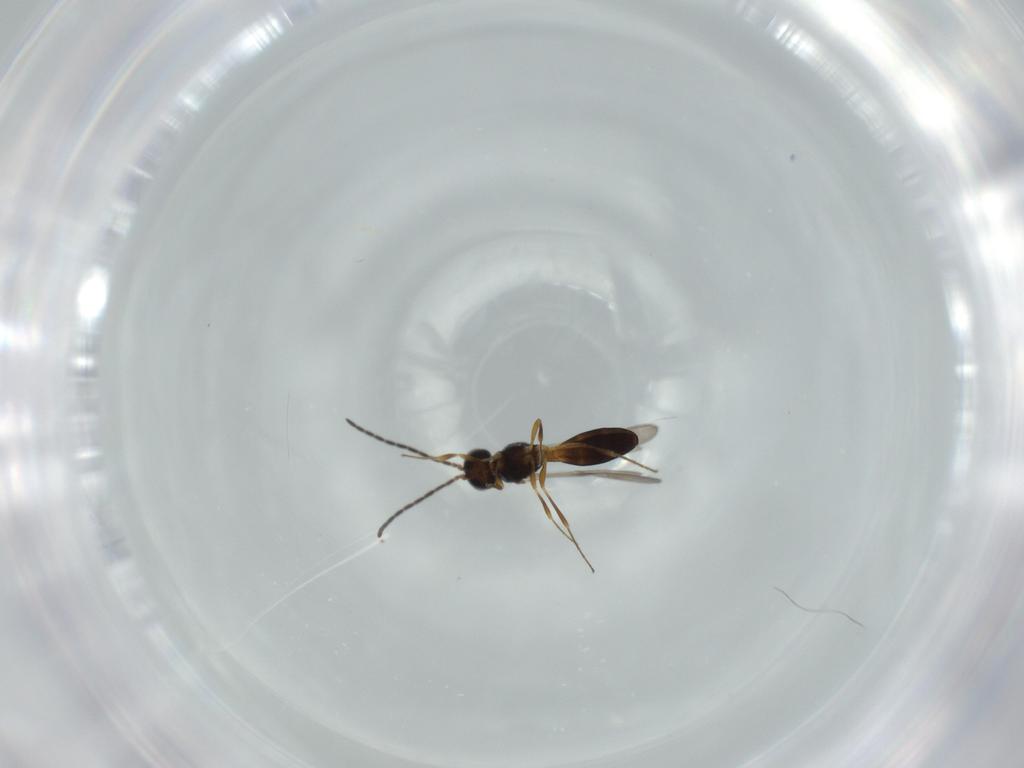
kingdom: Animalia
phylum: Arthropoda
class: Insecta
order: Hymenoptera
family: Scelionidae
